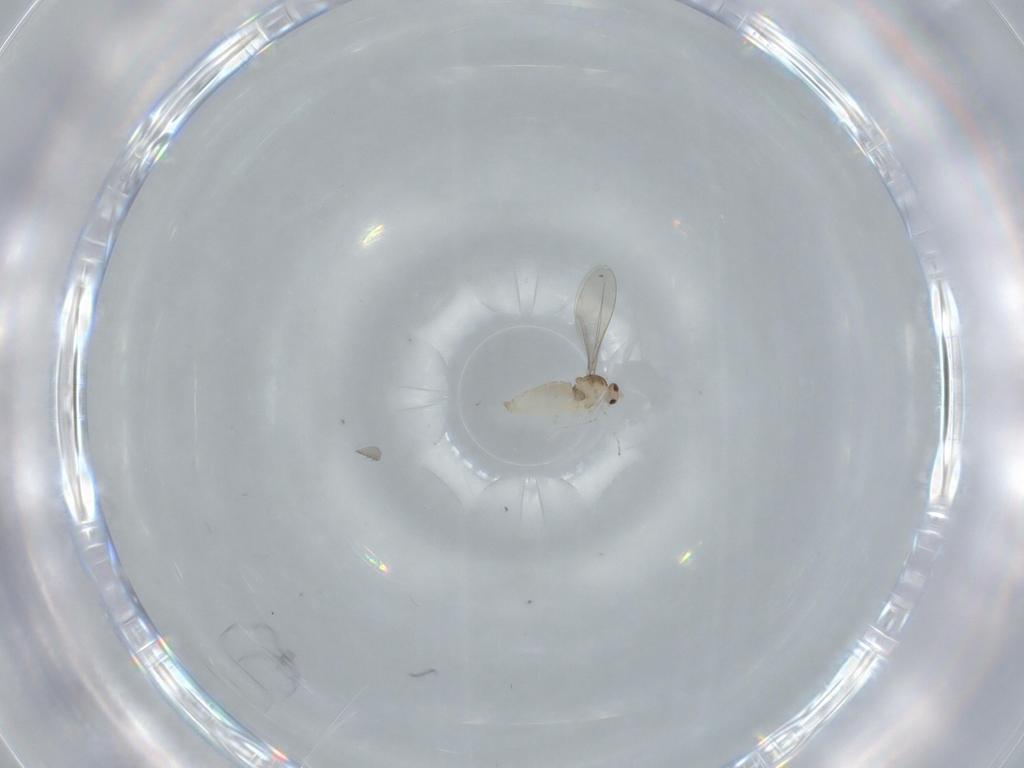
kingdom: Animalia
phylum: Arthropoda
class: Insecta
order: Diptera
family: Cecidomyiidae
